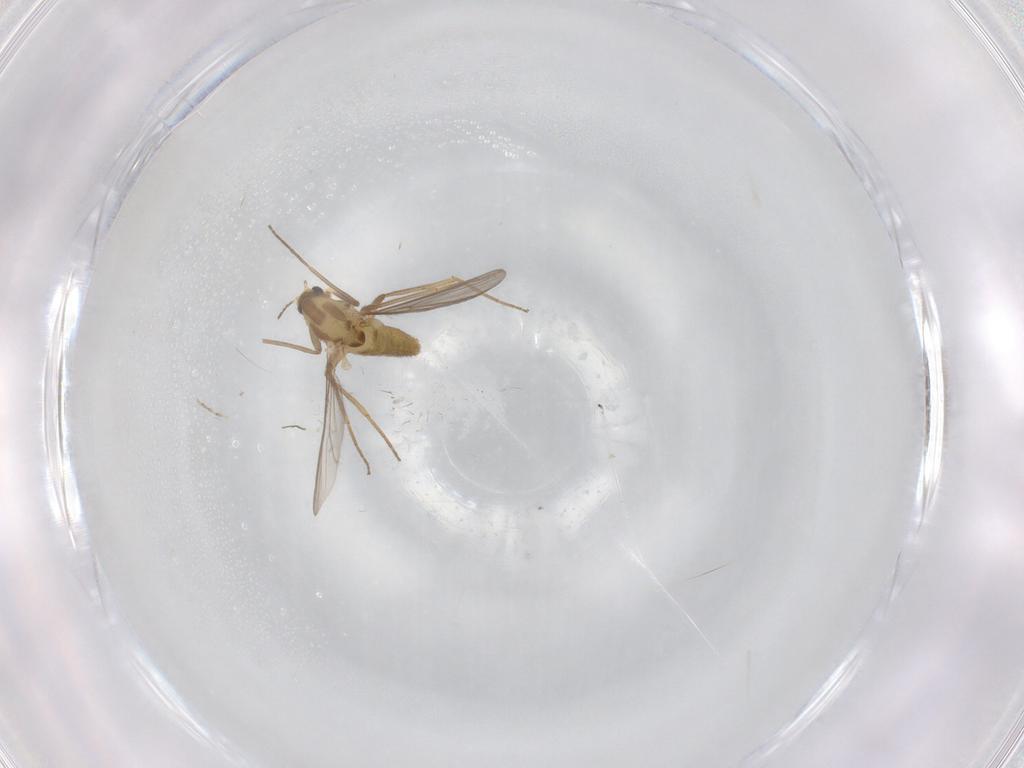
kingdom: Animalia
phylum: Arthropoda
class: Insecta
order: Diptera
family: Chironomidae
